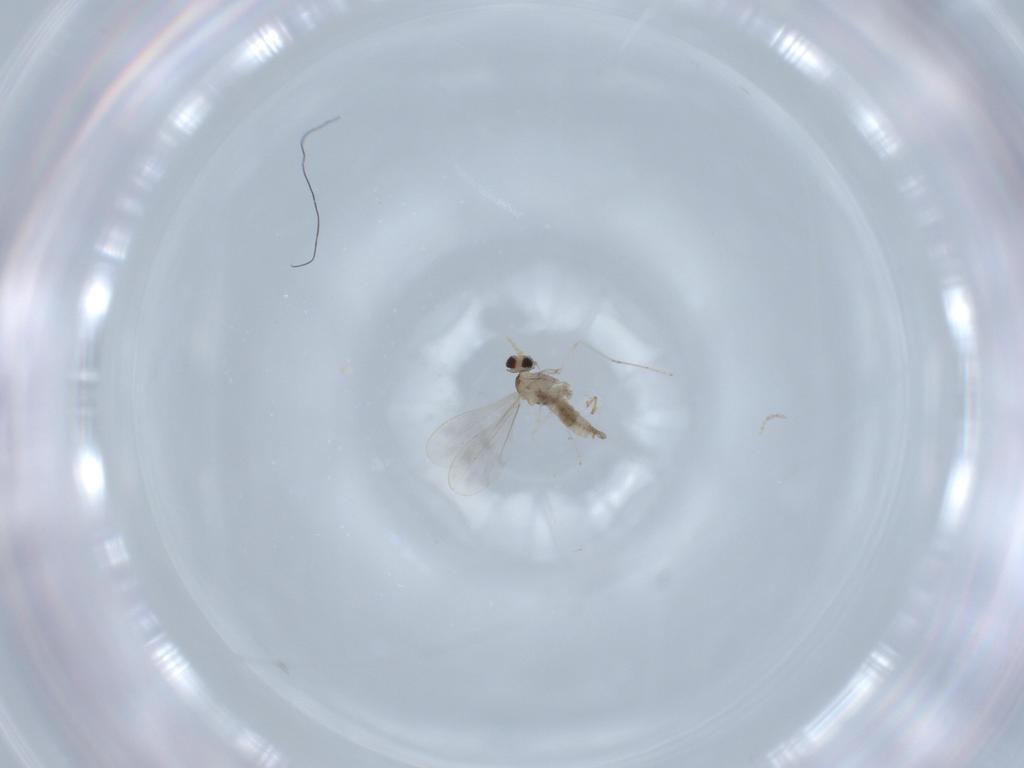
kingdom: Animalia
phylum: Arthropoda
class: Insecta
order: Diptera
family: Cecidomyiidae
